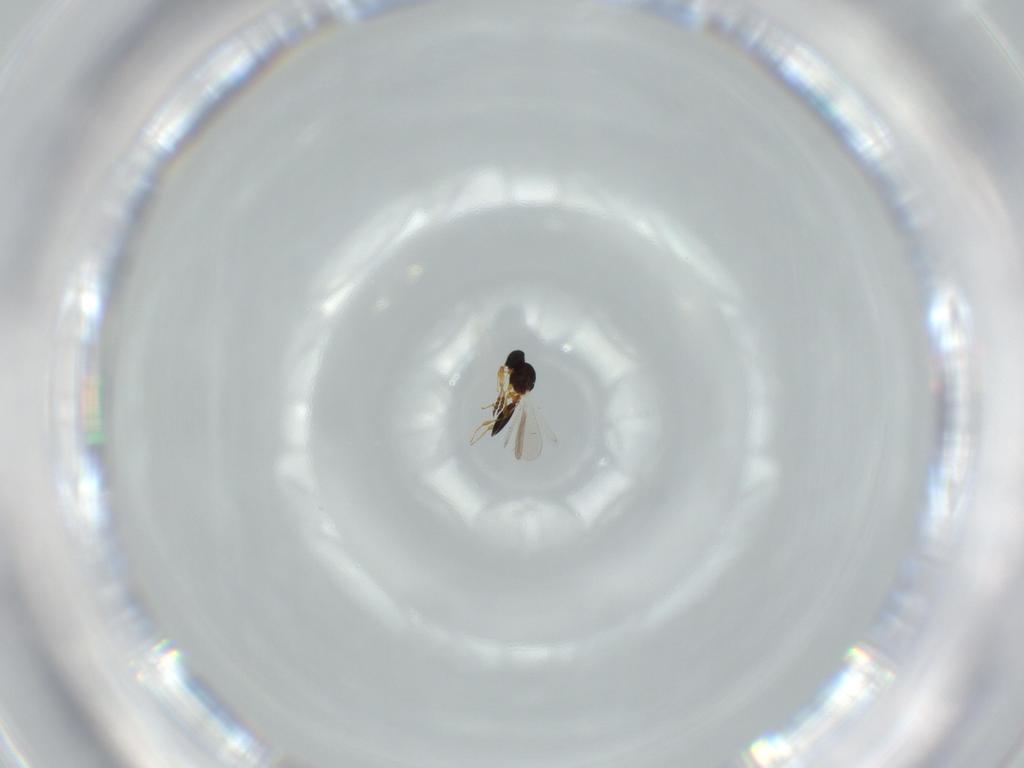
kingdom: Animalia
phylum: Arthropoda
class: Insecta
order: Hymenoptera
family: Platygastridae
